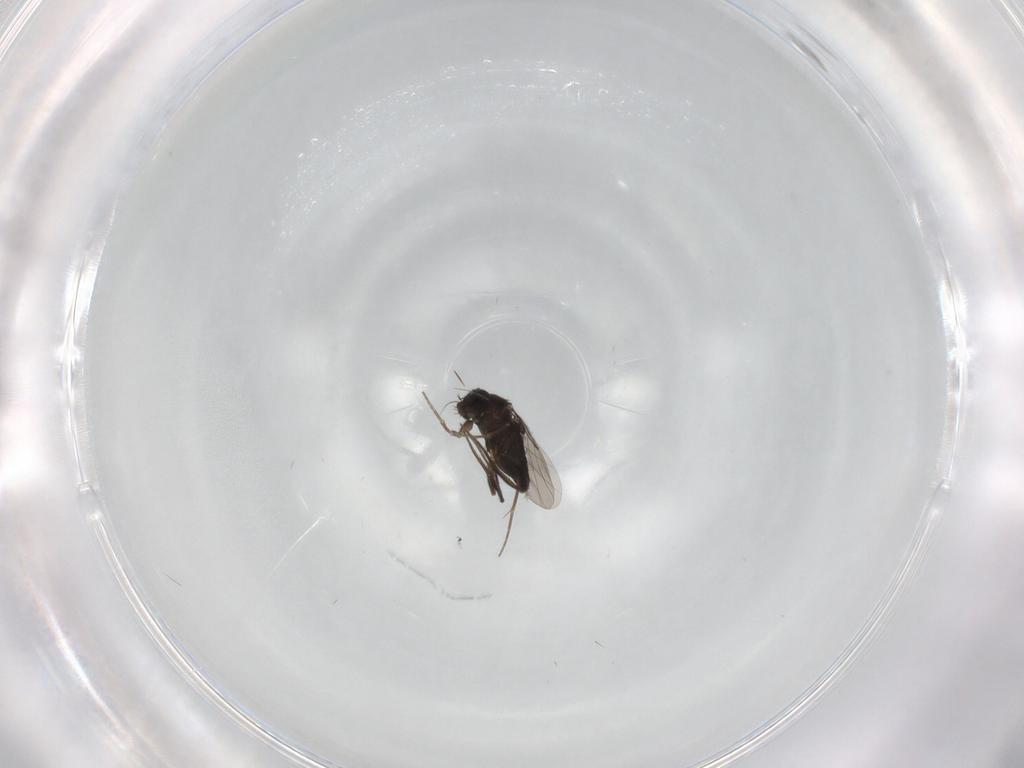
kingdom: Animalia
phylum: Arthropoda
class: Insecta
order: Diptera
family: Phoridae
